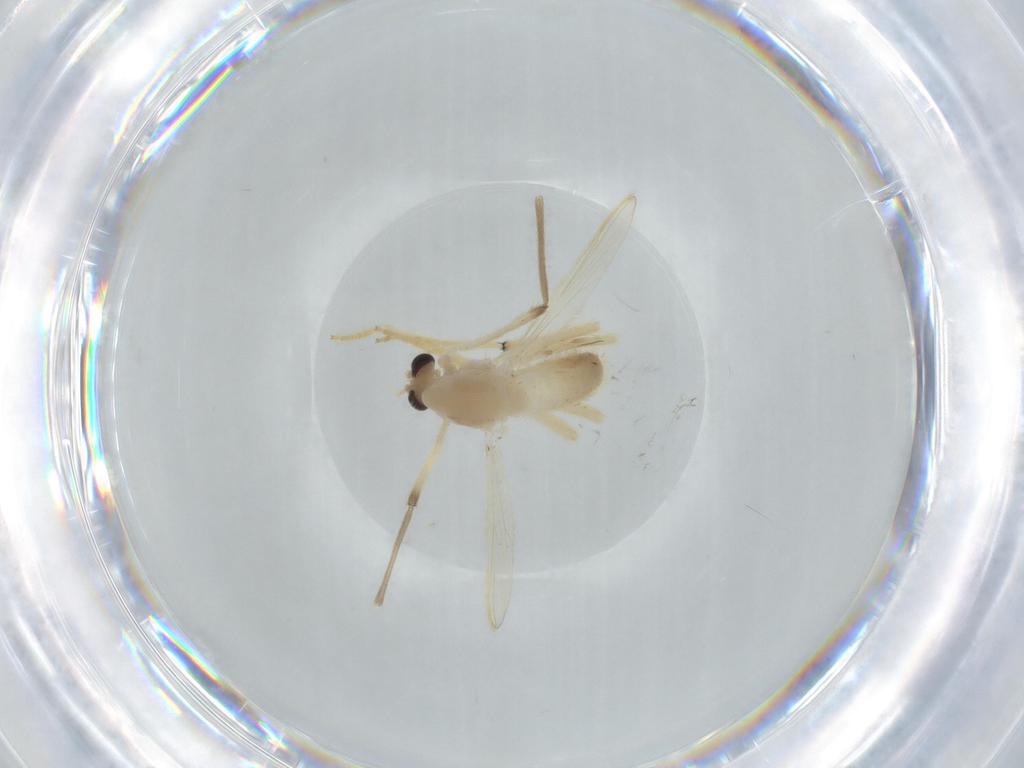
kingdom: Animalia
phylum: Arthropoda
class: Insecta
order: Diptera
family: Chironomidae
